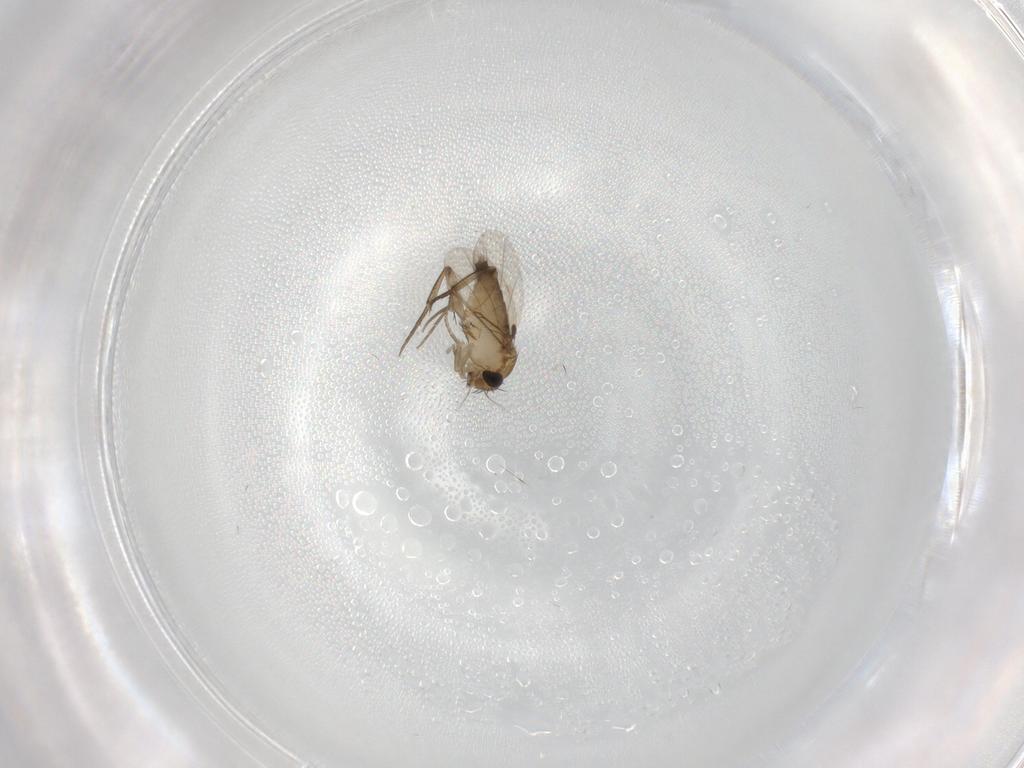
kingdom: Animalia
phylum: Arthropoda
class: Insecta
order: Diptera
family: Phoridae
